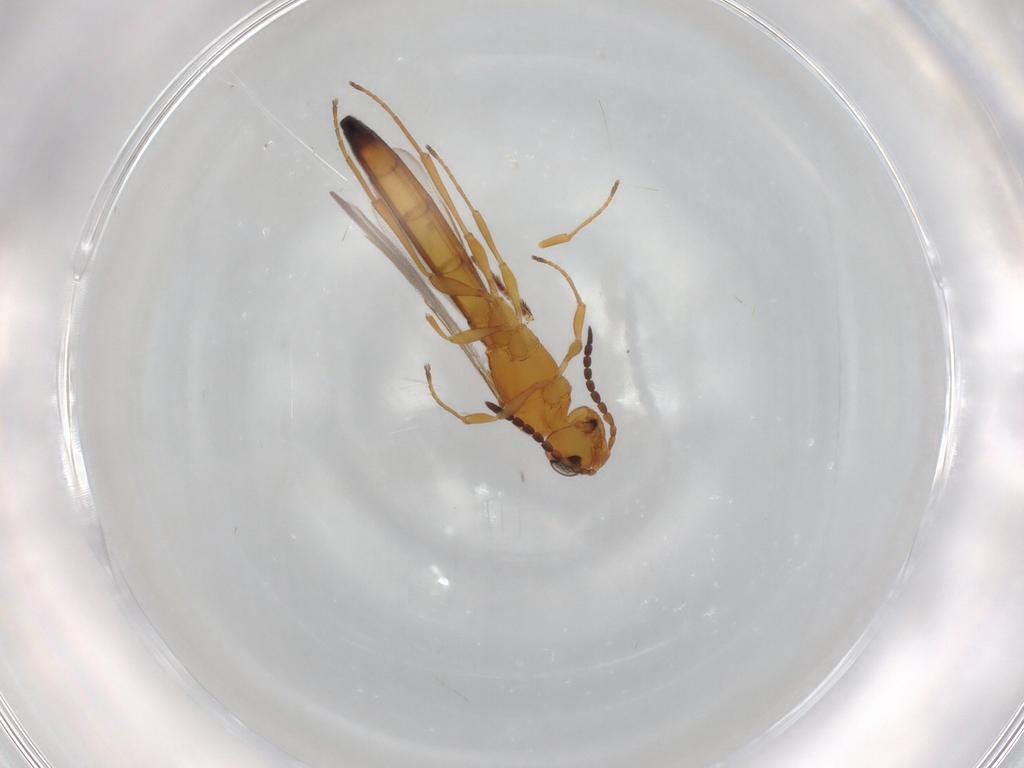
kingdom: Animalia
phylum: Arthropoda
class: Insecta
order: Hymenoptera
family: Scelionidae
